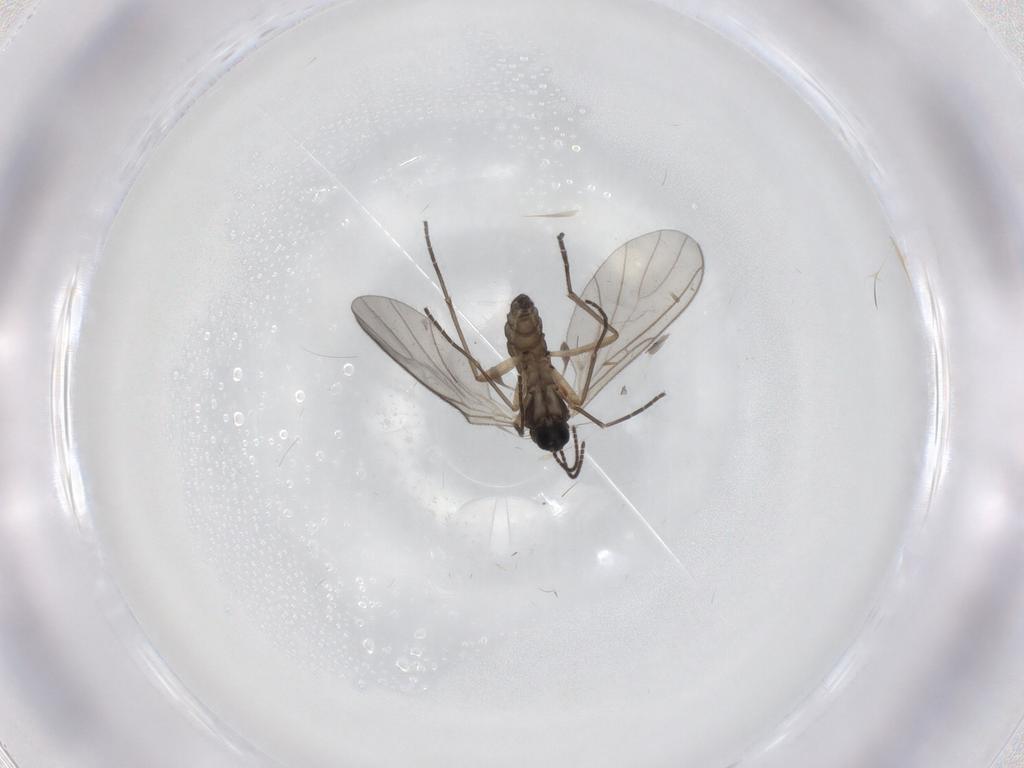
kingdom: Animalia
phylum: Arthropoda
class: Insecta
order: Diptera
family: Sciaridae
